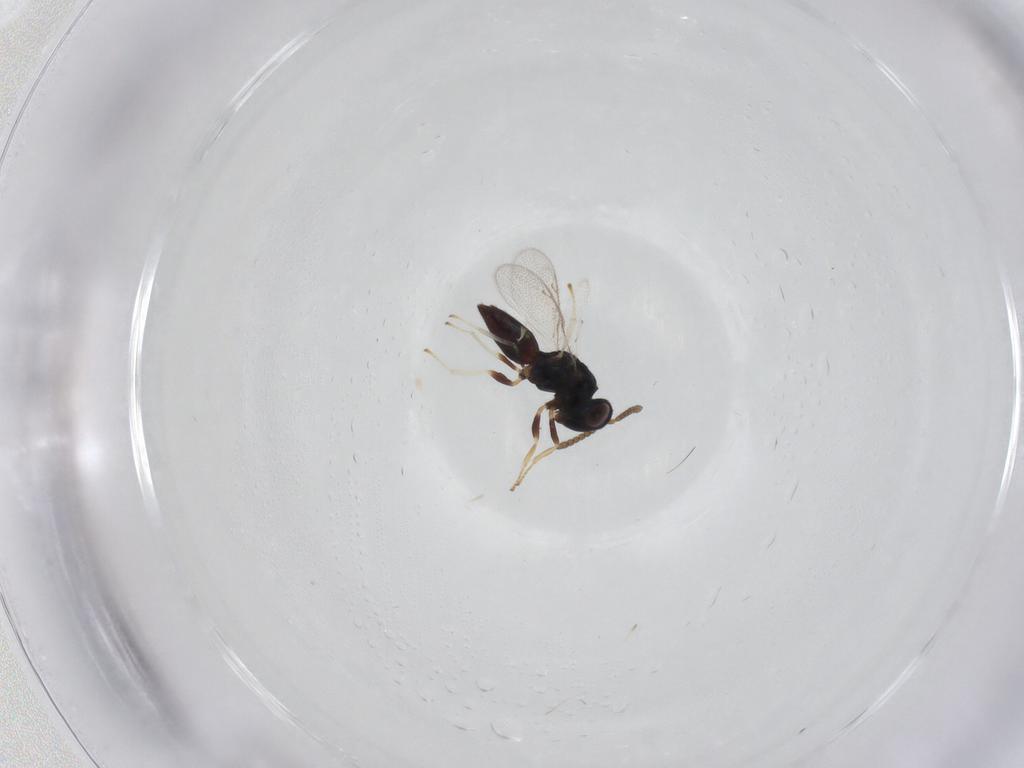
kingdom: Animalia
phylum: Arthropoda
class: Insecta
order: Hymenoptera
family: Pteromalidae
